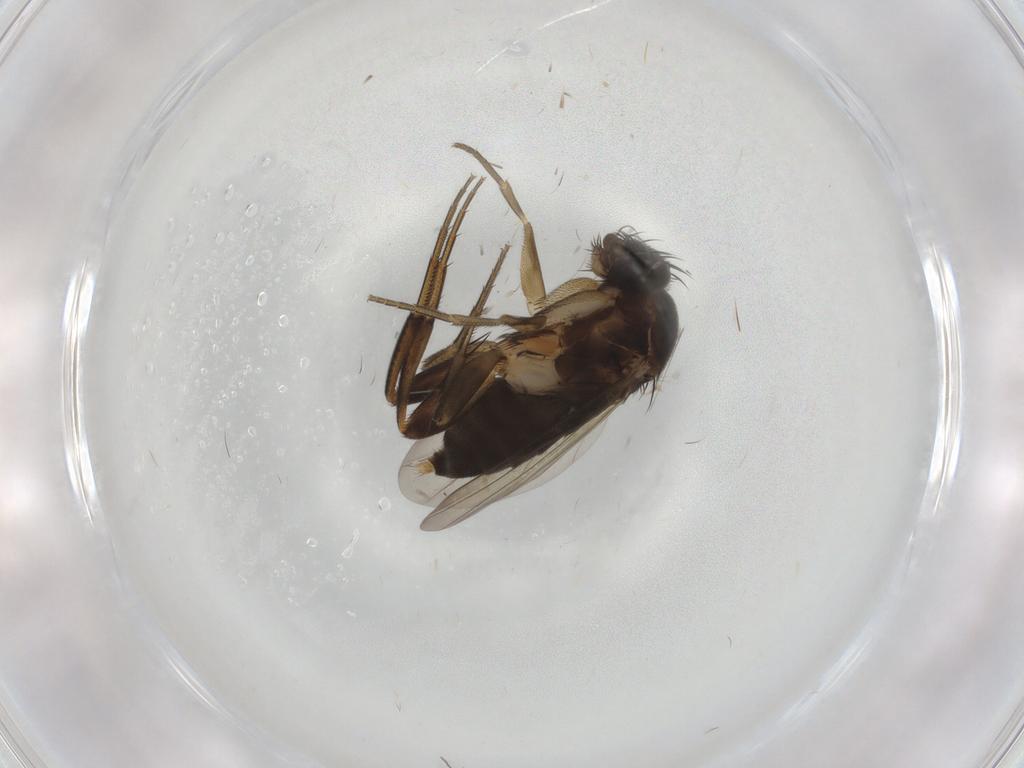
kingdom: Animalia
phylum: Arthropoda
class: Insecta
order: Diptera
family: Phoridae
